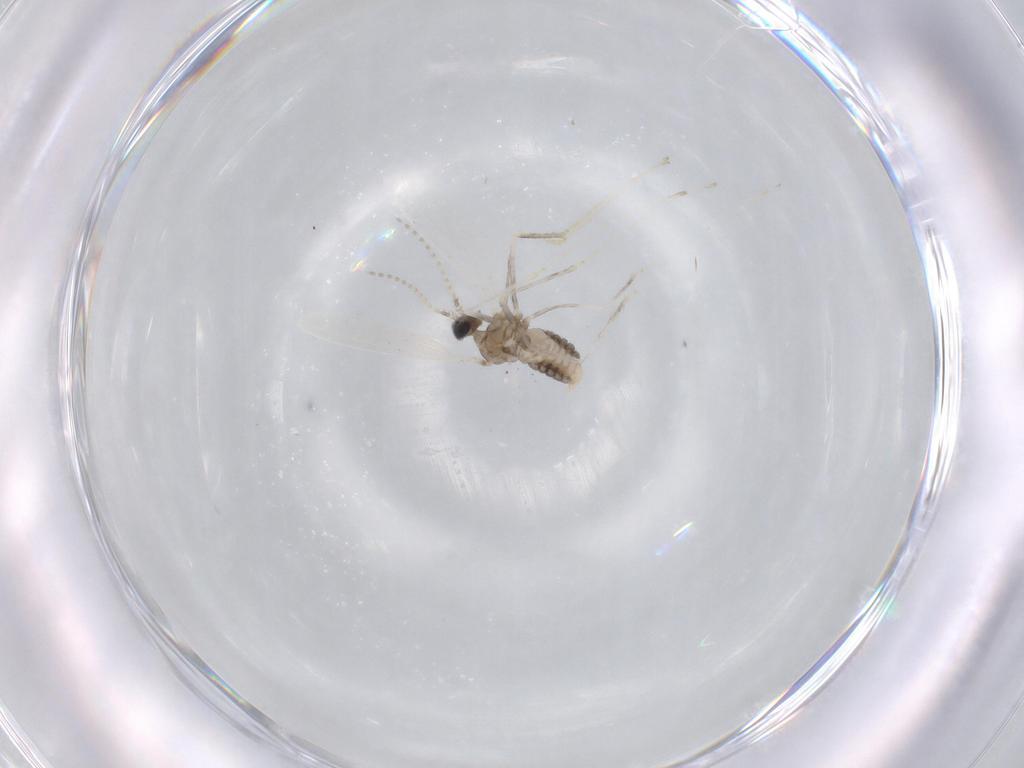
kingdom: Animalia
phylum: Arthropoda
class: Insecta
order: Diptera
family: Cecidomyiidae
